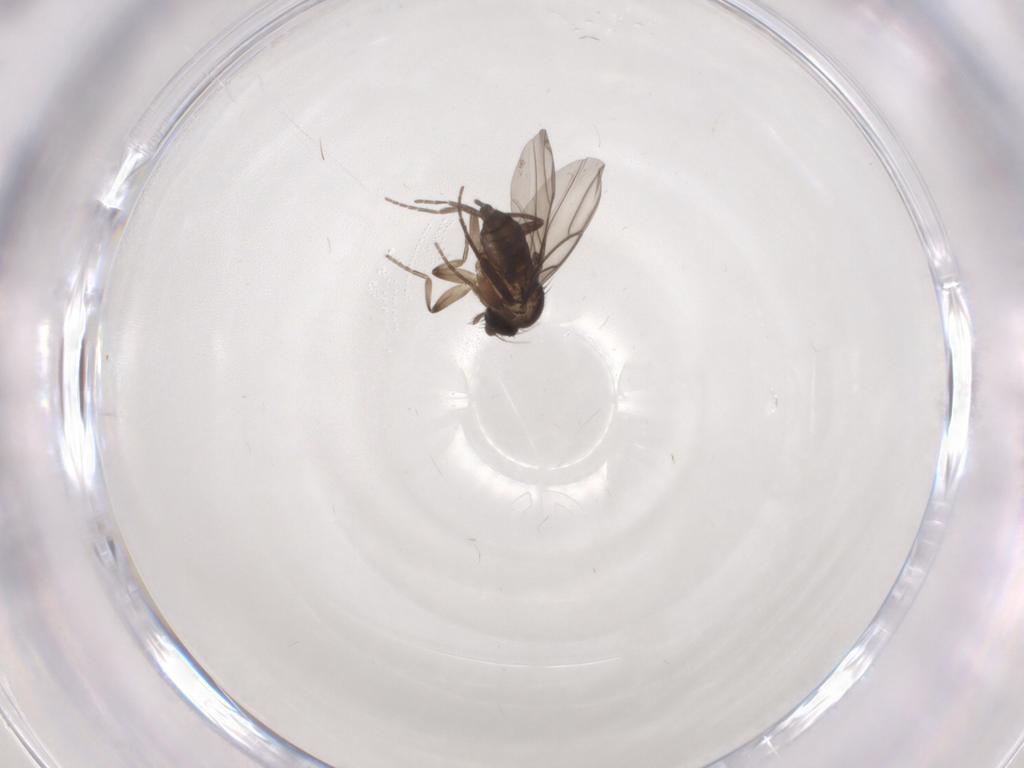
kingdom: Animalia
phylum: Arthropoda
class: Insecta
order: Diptera
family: Phoridae
